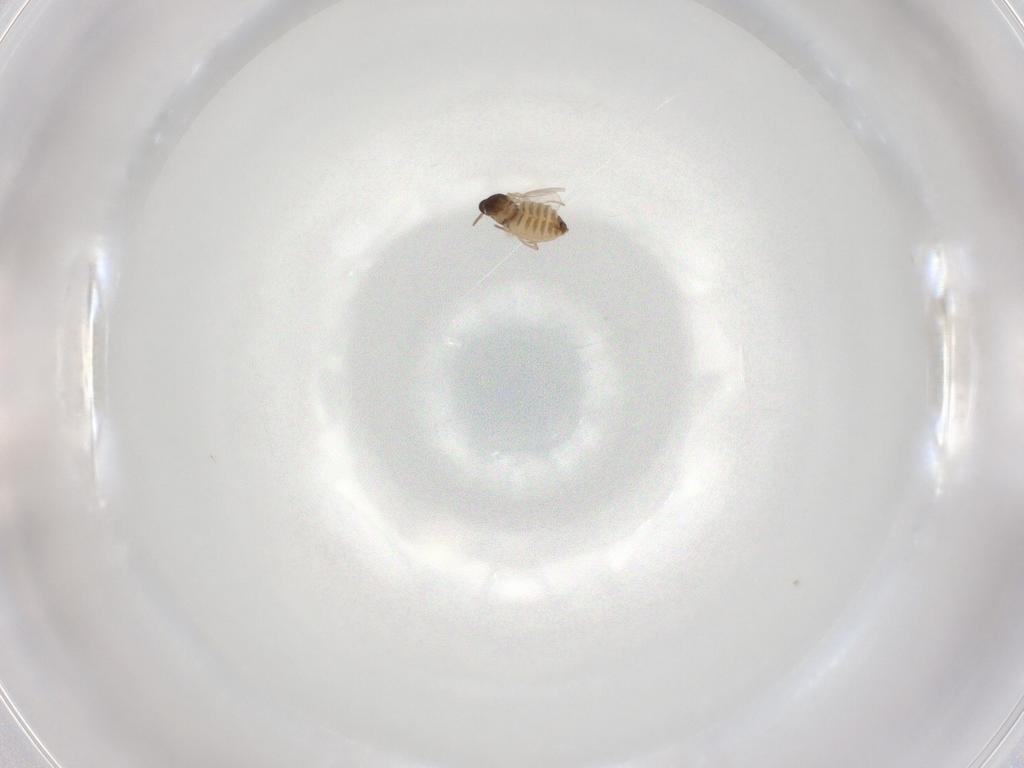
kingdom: Animalia
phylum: Arthropoda
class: Insecta
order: Diptera
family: Cecidomyiidae
